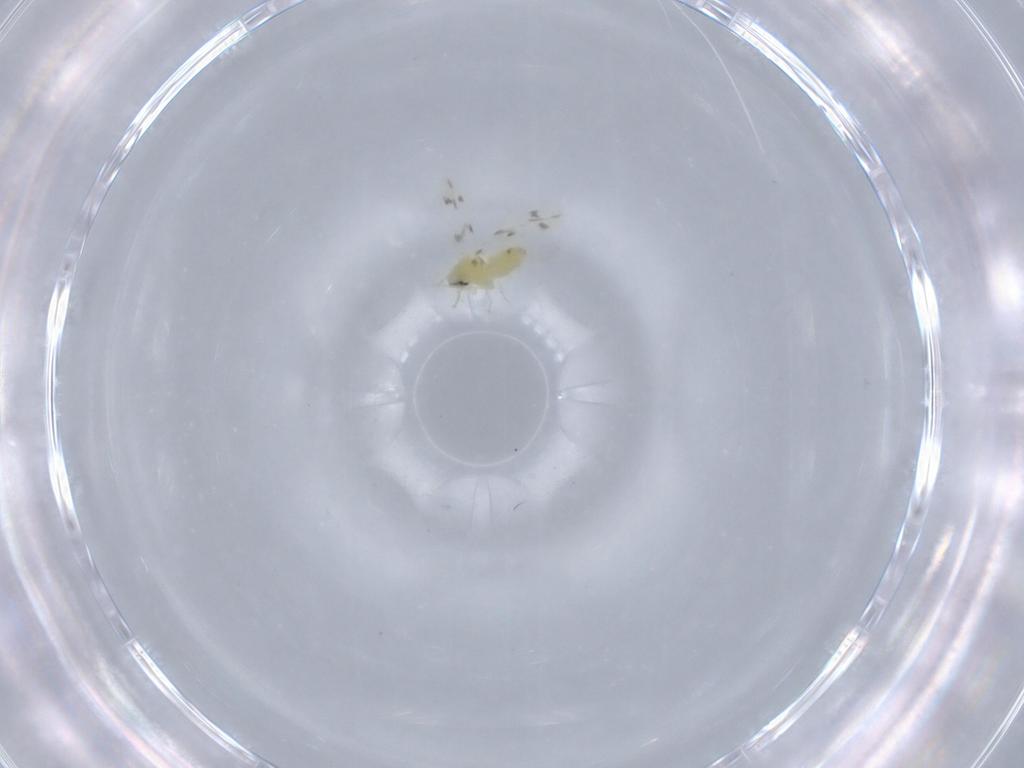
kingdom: Animalia
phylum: Arthropoda
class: Insecta
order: Hemiptera
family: Aleyrodidae
